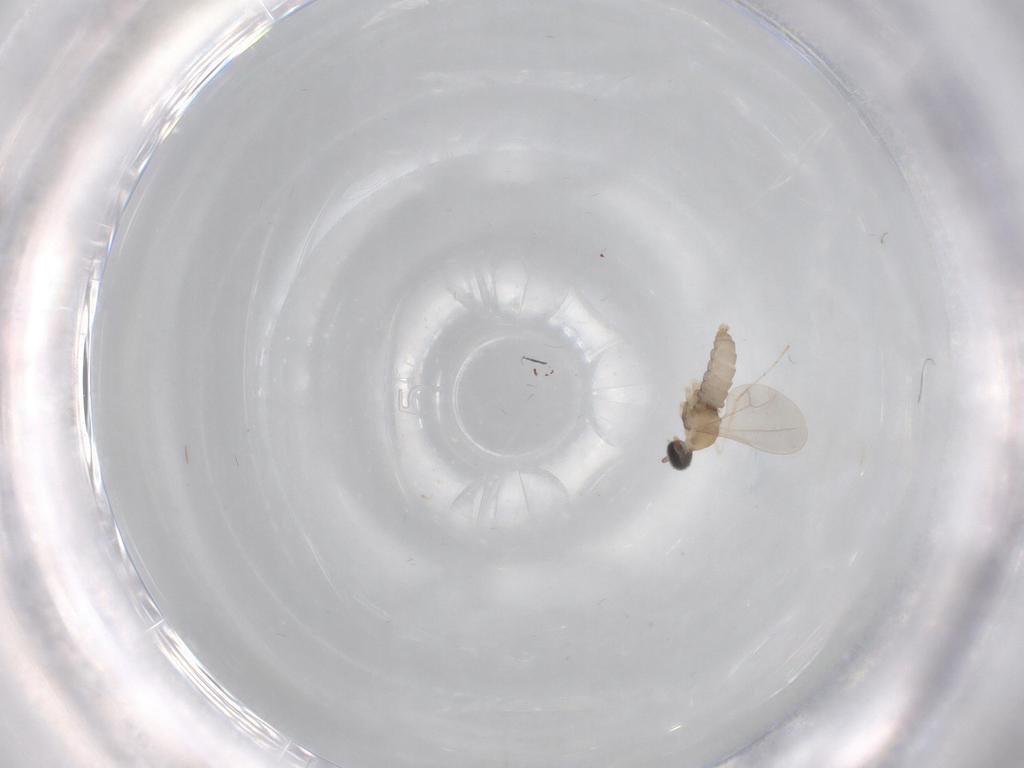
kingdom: Animalia
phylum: Arthropoda
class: Insecta
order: Diptera
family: Cecidomyiidae
